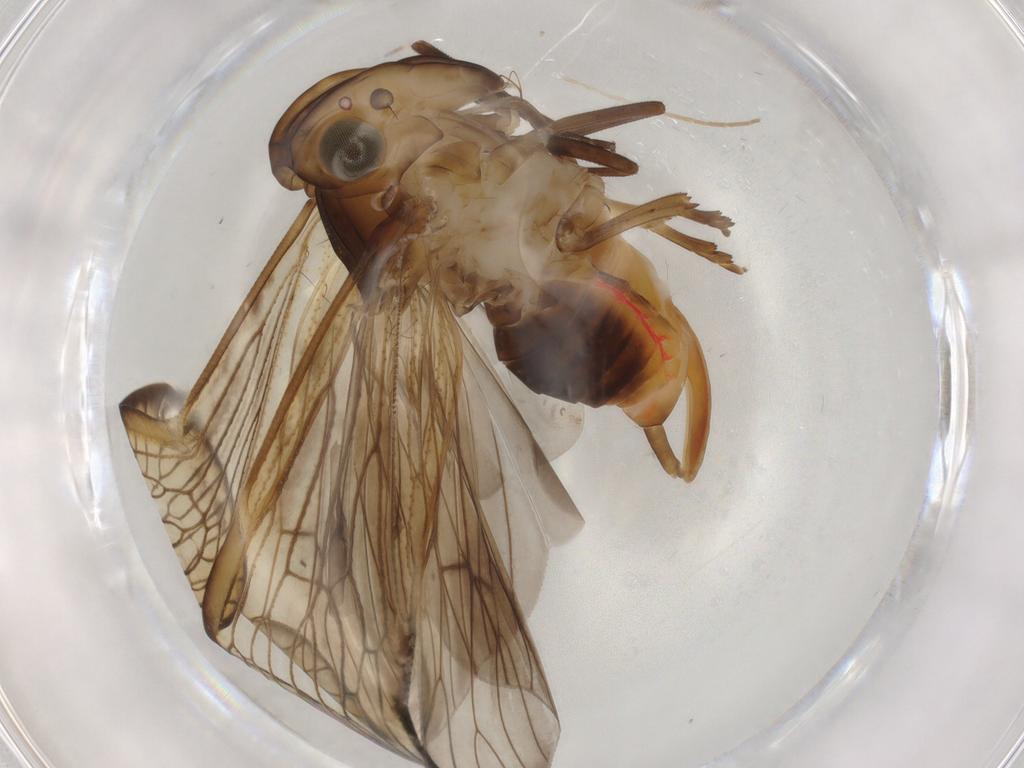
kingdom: Animalia
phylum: Arthropoda
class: Insecta
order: Hemiptera
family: Cixiidae
